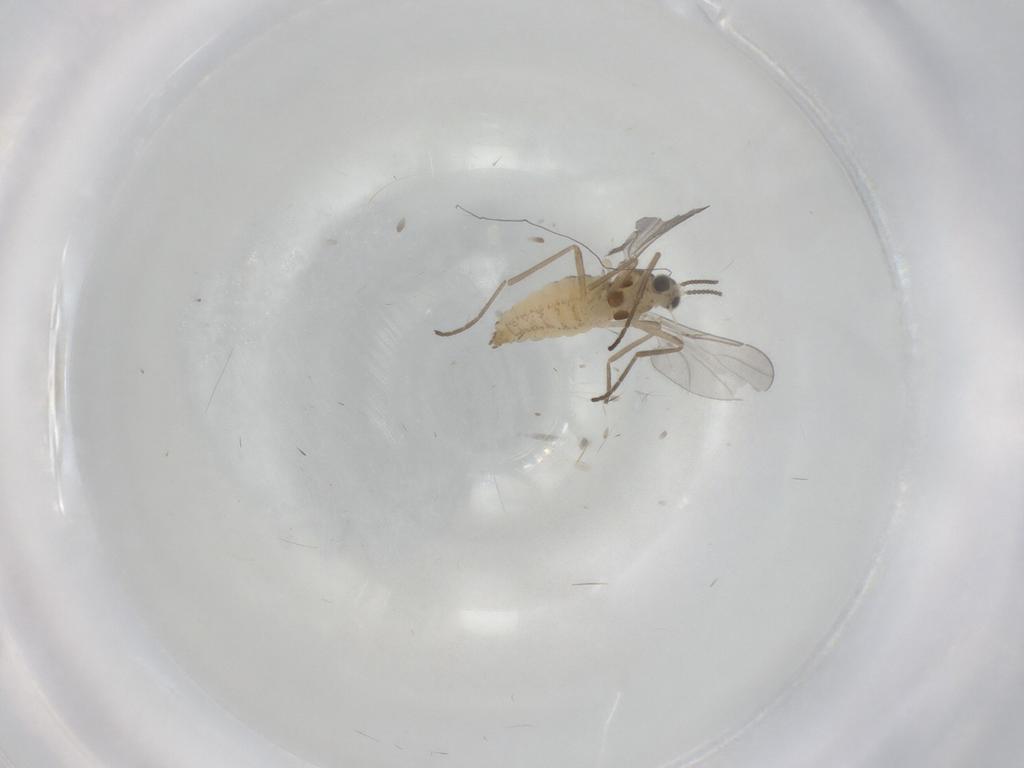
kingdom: Animalia
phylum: Arthropoda
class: Insecta
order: Diptera
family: Cecidomyiidae
